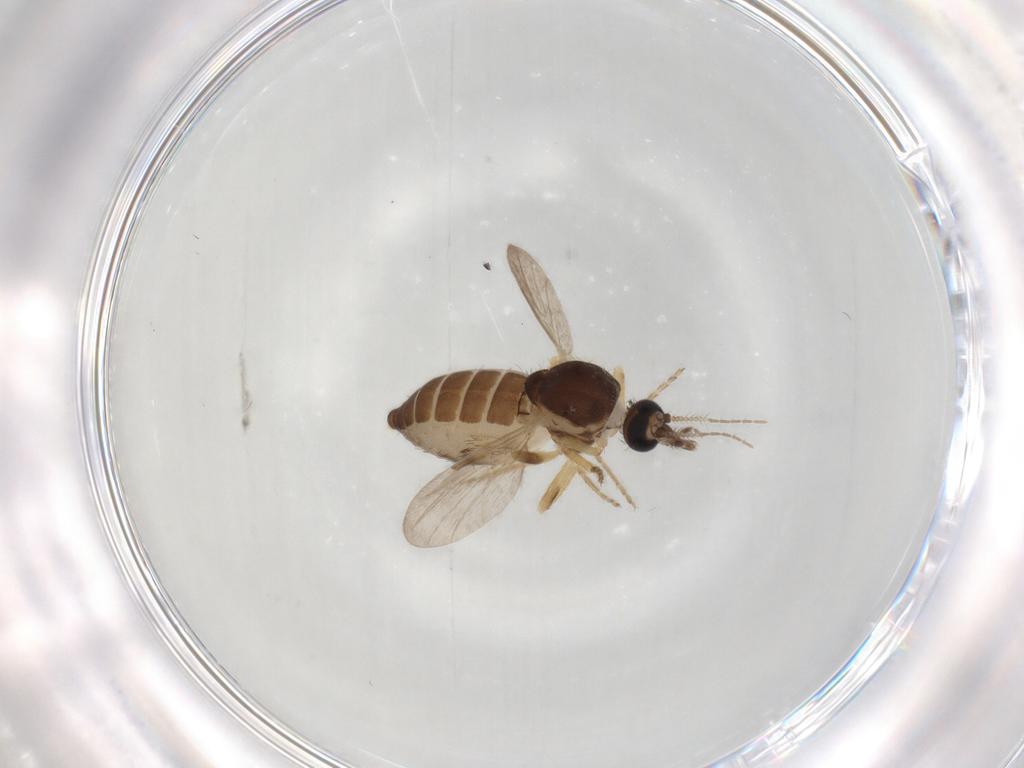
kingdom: Animalia
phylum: Arthropoda
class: Insecta
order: Diptera
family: Ceratopogonidae
